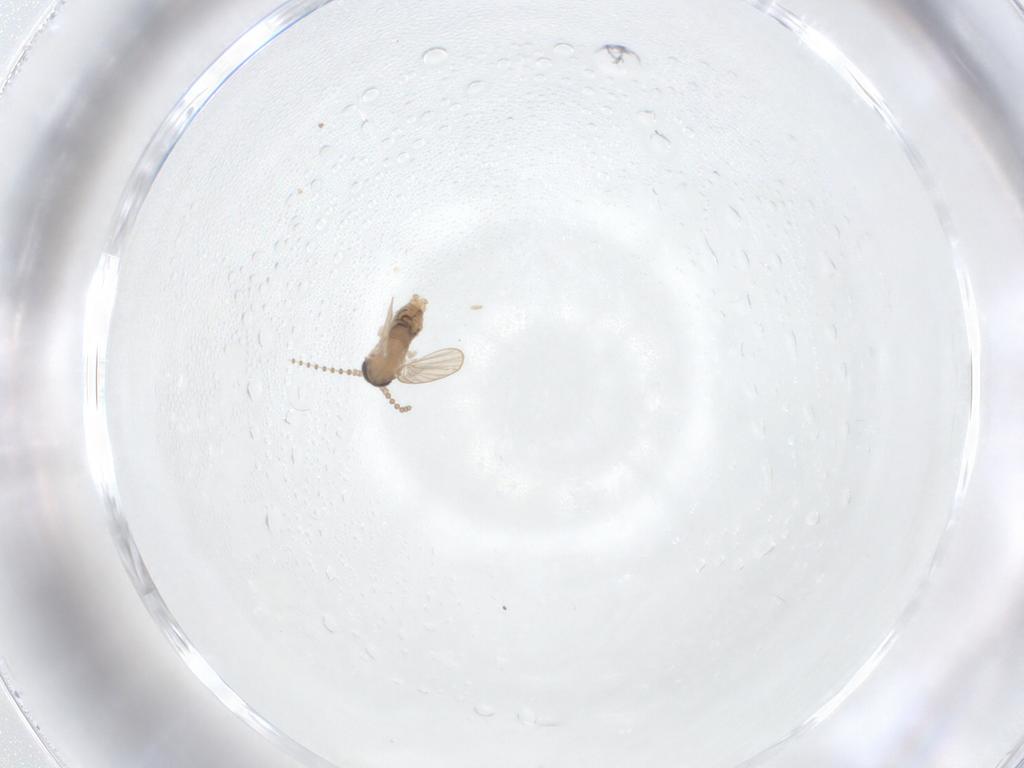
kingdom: Animalia
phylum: Arthropoda
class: Insecta
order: Diptera
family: Psychodidae
